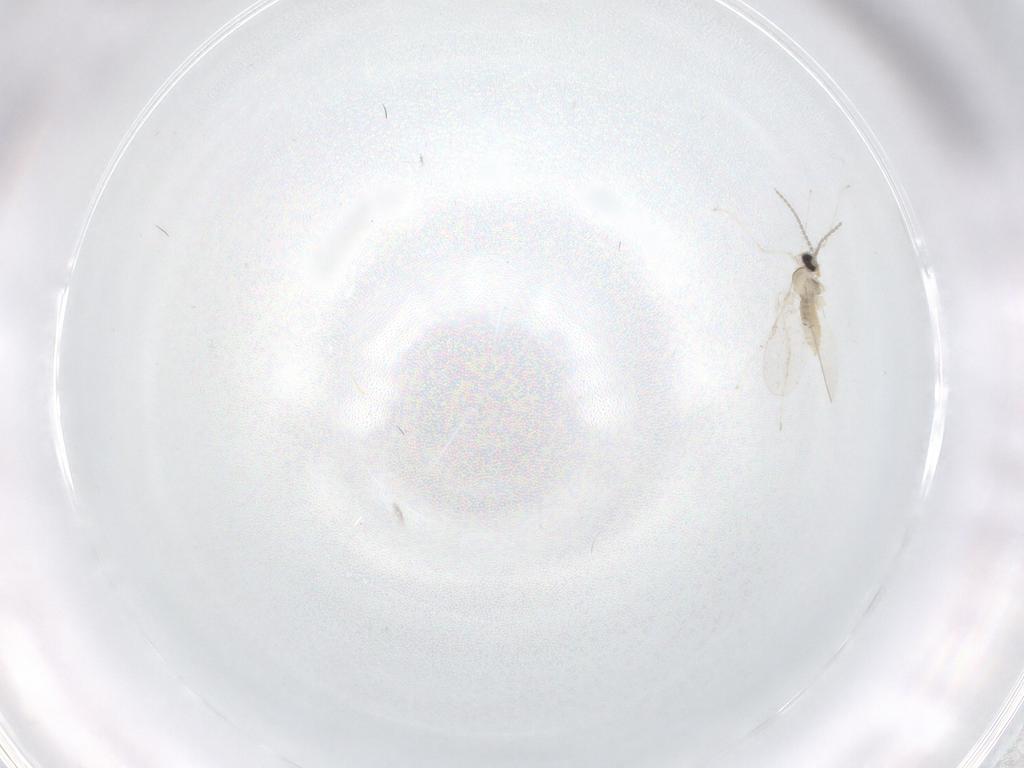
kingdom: Animalia
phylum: Arthropoda
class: Insecta
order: Diptera
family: Cecidomyiidae
